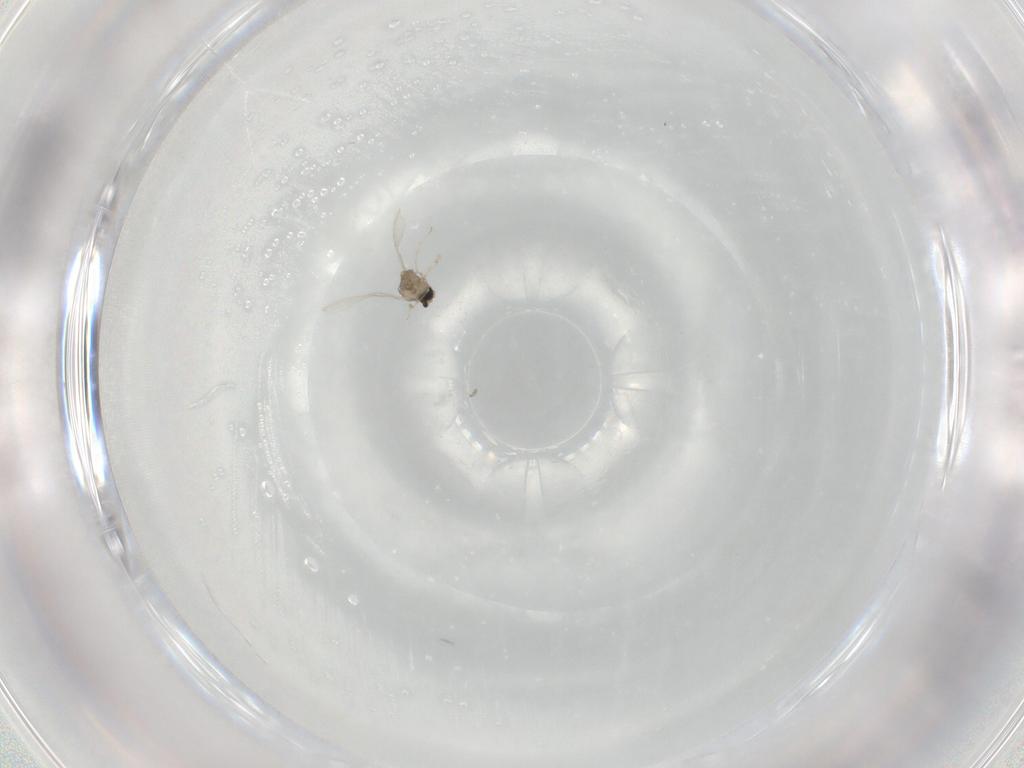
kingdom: Animalia
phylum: Arthropoda
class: Insecta
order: Diptera
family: Cecidomyiidae
